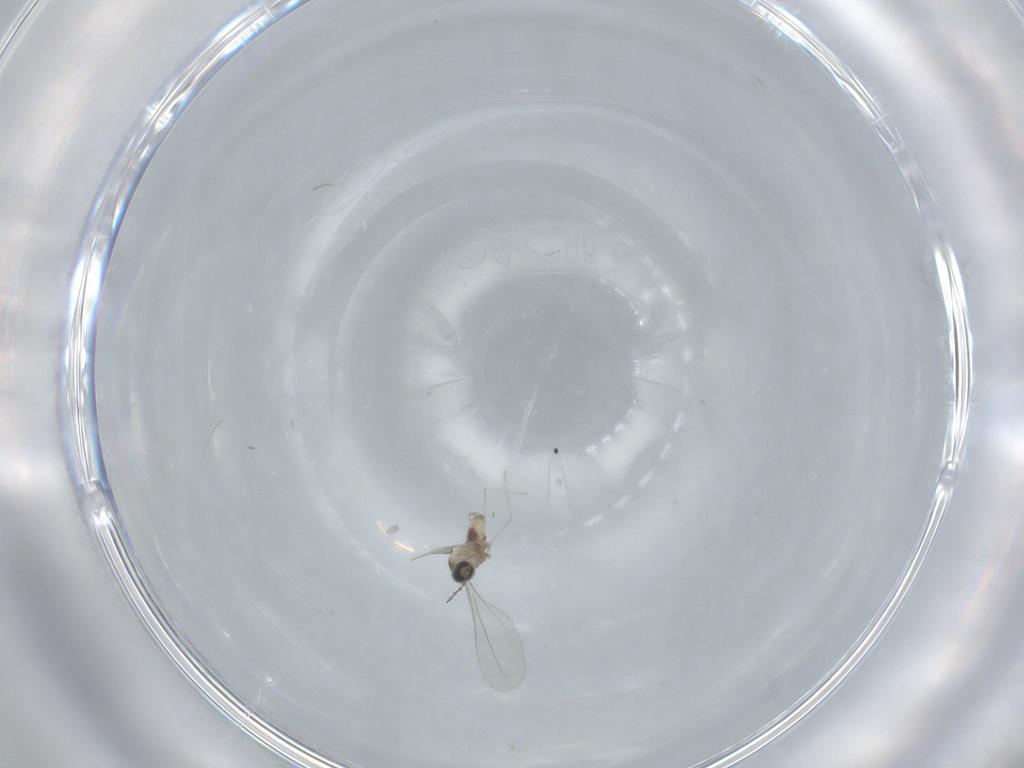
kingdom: Animalia
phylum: Arthropoda
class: Insecta
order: Diptera
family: Sciaridae
